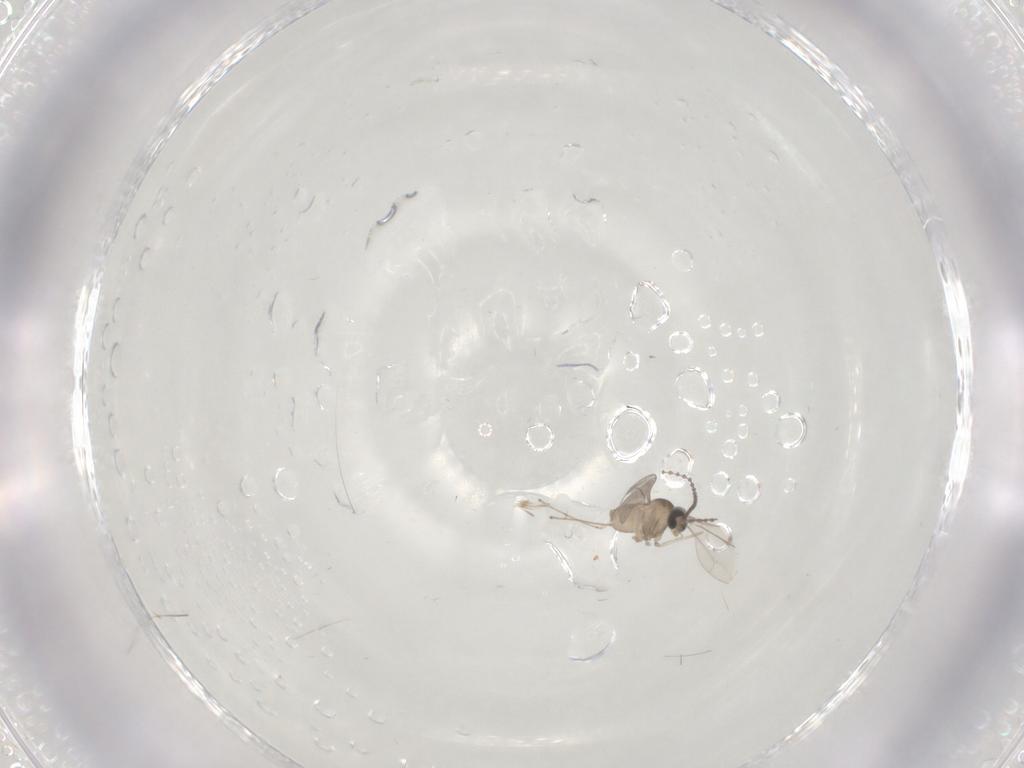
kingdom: Animalia
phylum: Arthropoda
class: Insecta
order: Diptera
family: Cecidomyiidae
